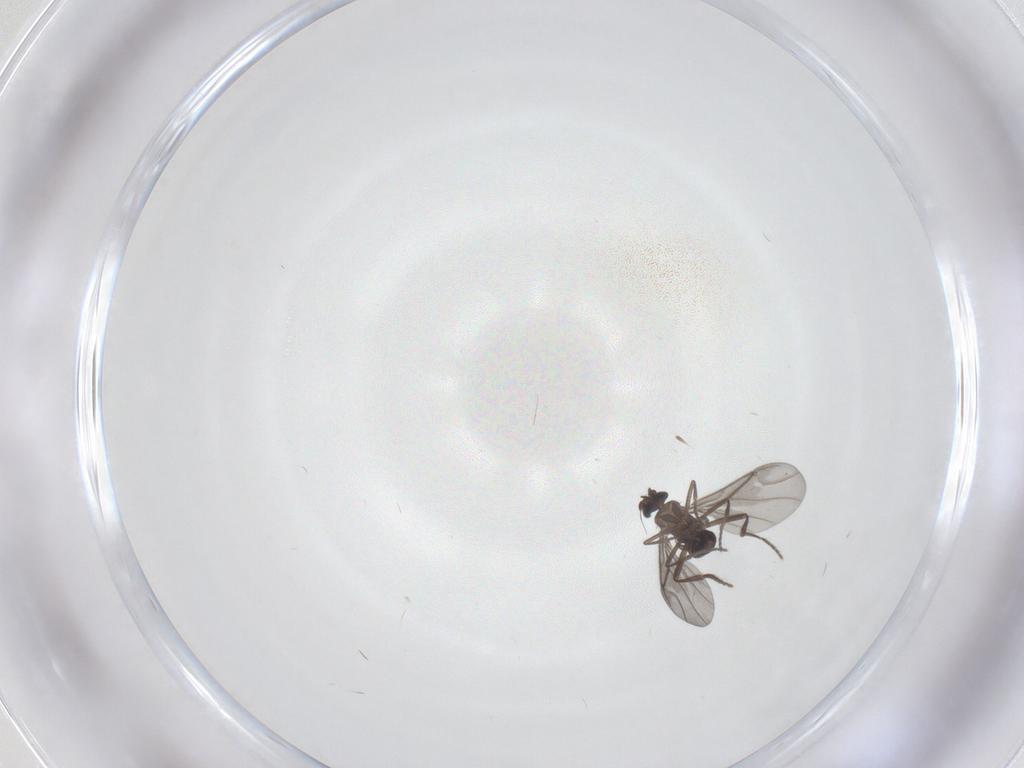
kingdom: Animalia
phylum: Arthropoda
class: Insecta
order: Diptera
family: Phoridae
